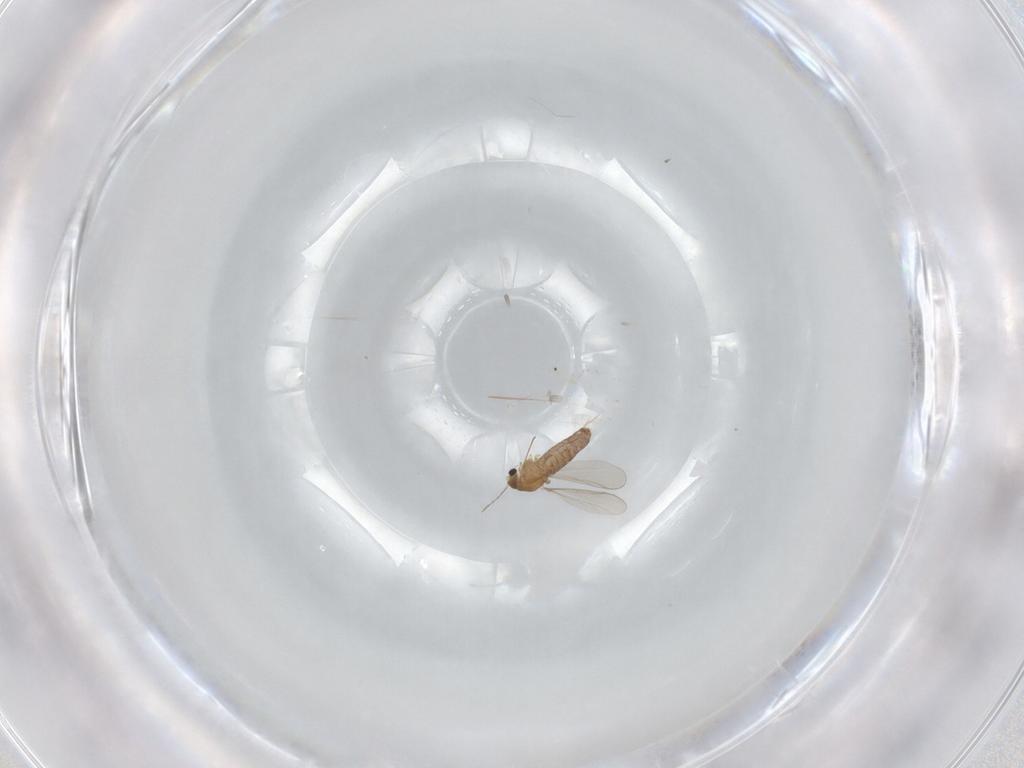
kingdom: Animalia
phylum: Arthropoda
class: Insecta
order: Diptera
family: Chironomidae
